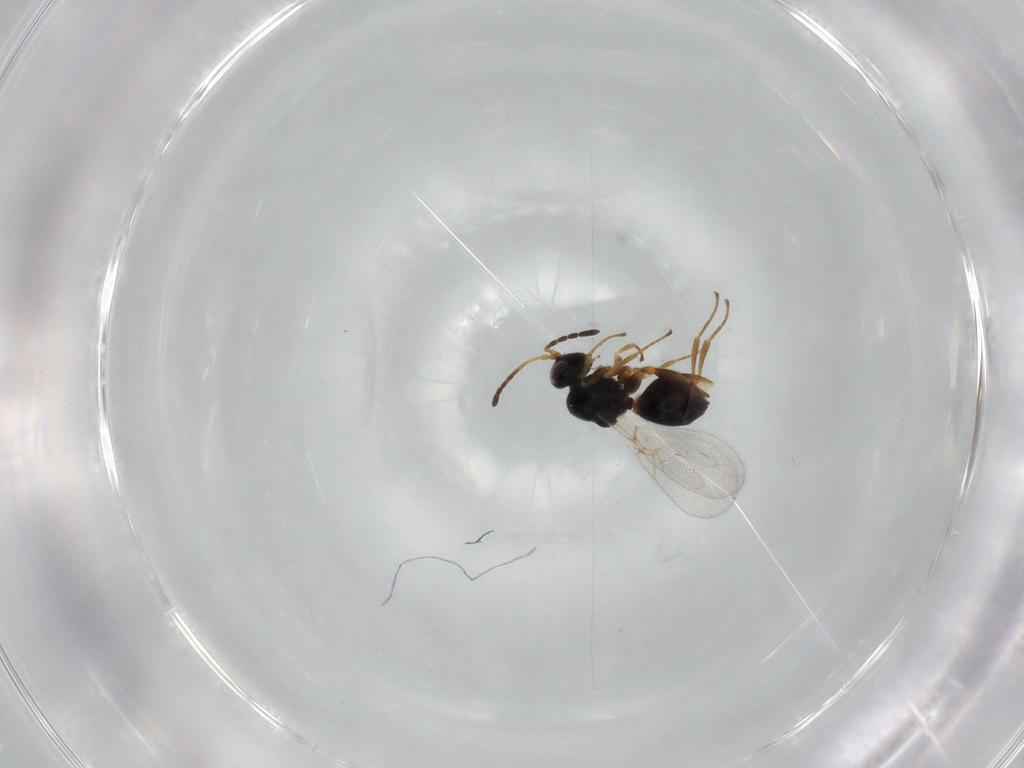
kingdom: Animalia
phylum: Arthropoda
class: Insecta
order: Hymenoptera
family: Figitidae
